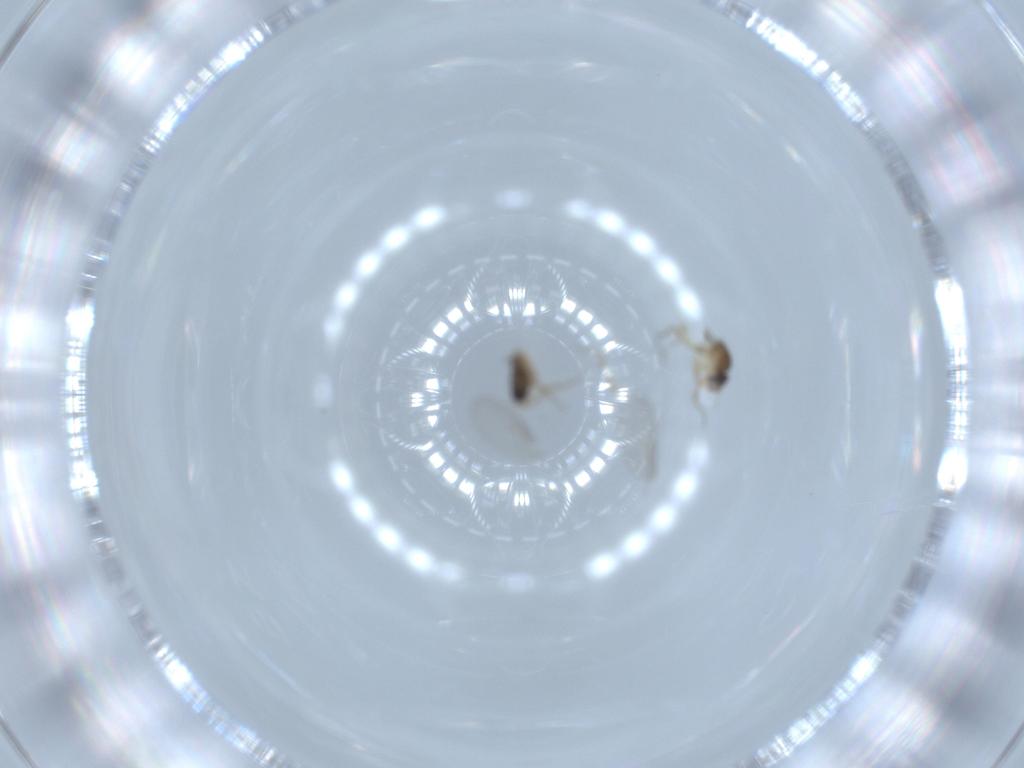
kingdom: Animalia
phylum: Arthropoda
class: Insecta
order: Diptera
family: Phoridae
